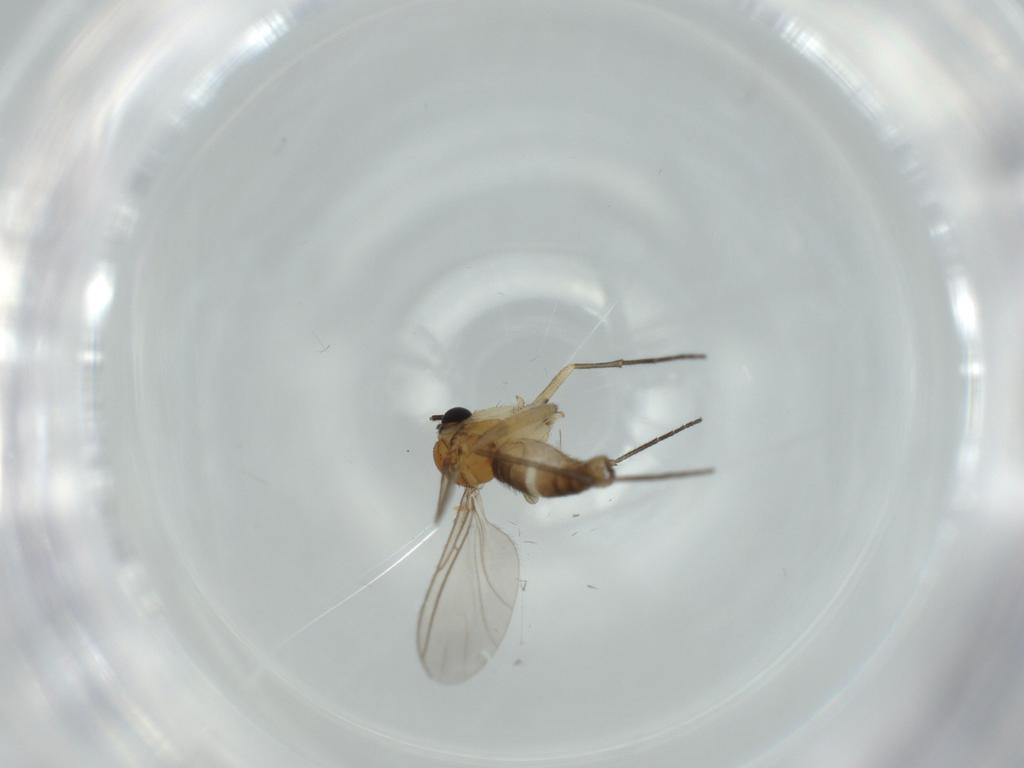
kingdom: Animalia
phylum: Arthropoda
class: Insecta
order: Diptera
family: Sciaridae
